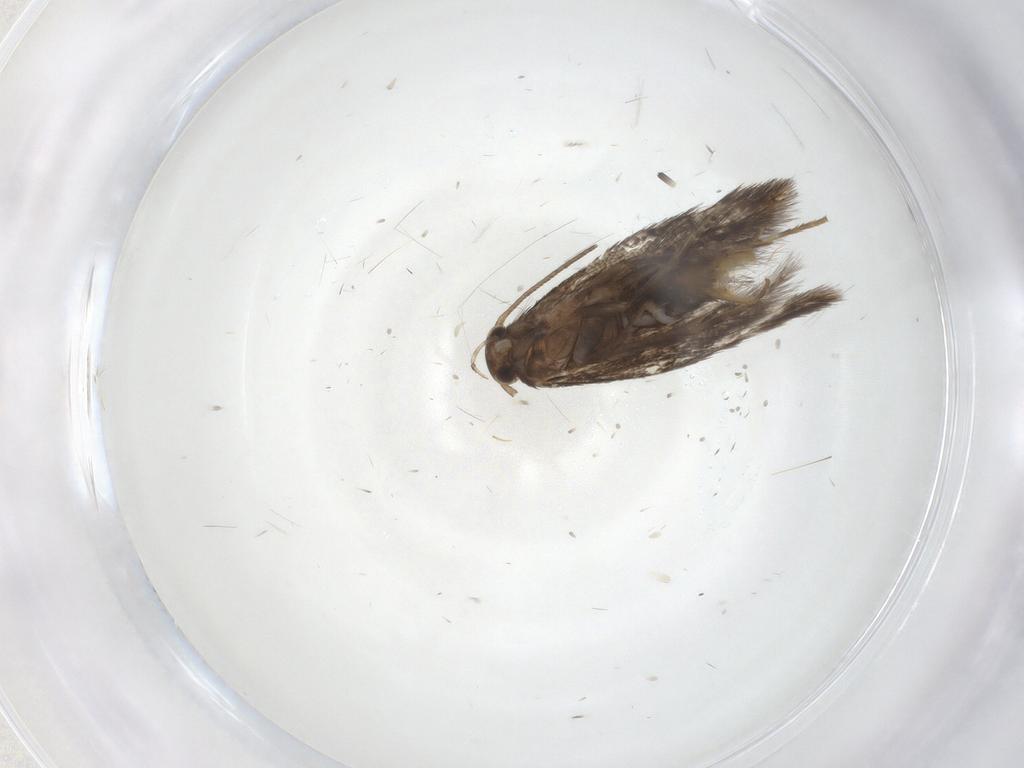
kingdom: Animalia
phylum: Arthropoda
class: Insecta
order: Lepidoptera
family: Elachistidae
